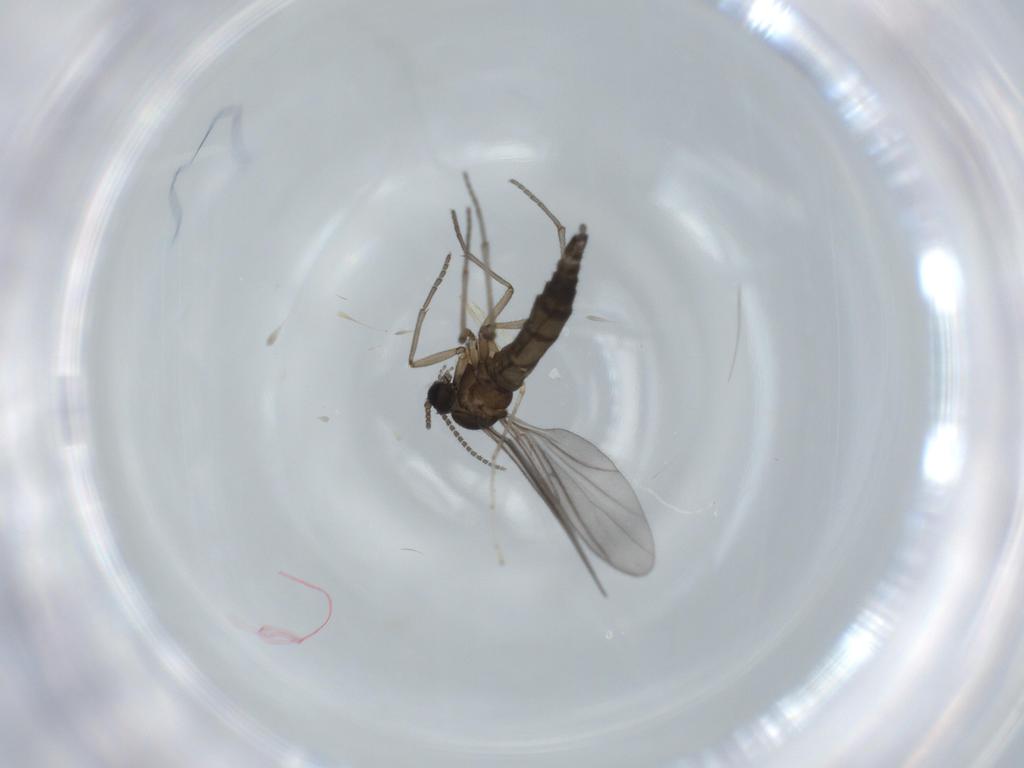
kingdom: Animalia
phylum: Arthropoda
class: Insecta
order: Diptera
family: Sciaridae
